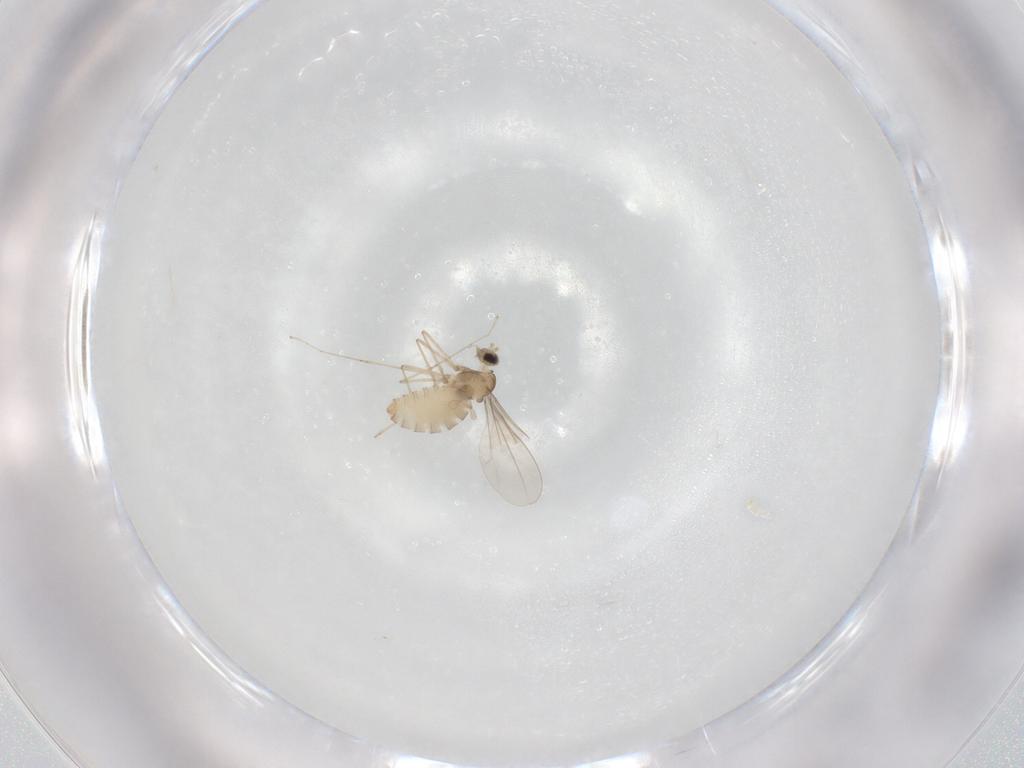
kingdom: Animalia
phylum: Arthropoda
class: Insecta
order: Diptera
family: Cecidomyiidae
